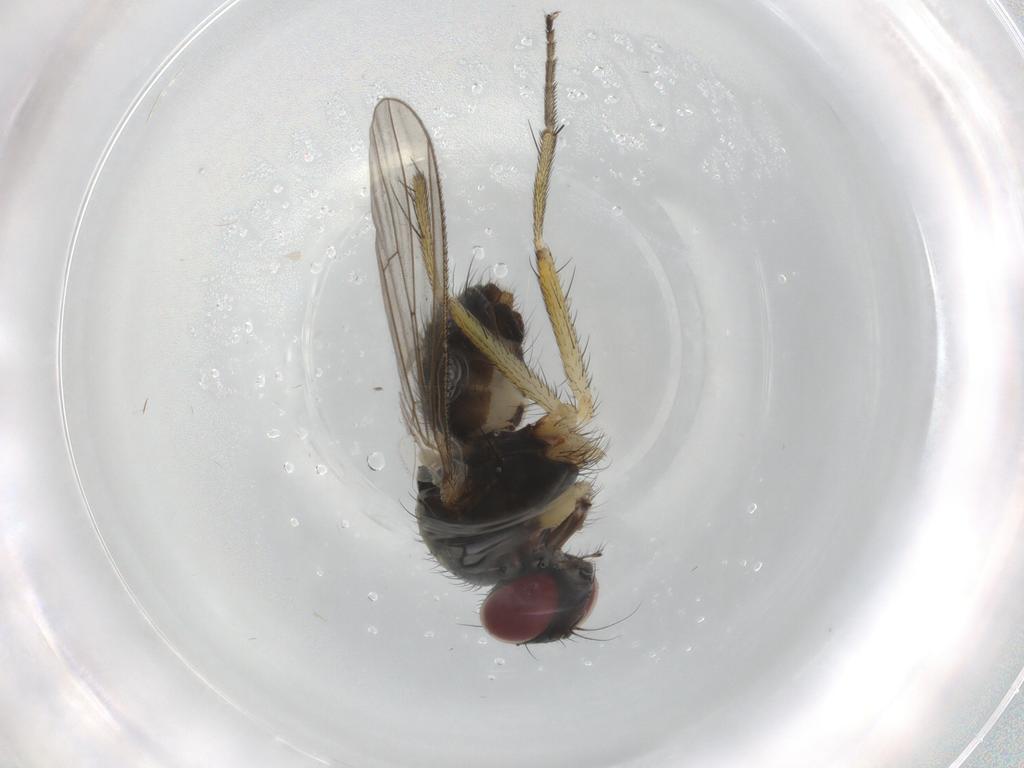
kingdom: Animalia
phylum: Arthropoda
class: Insecta
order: Diptera
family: Muscidae
